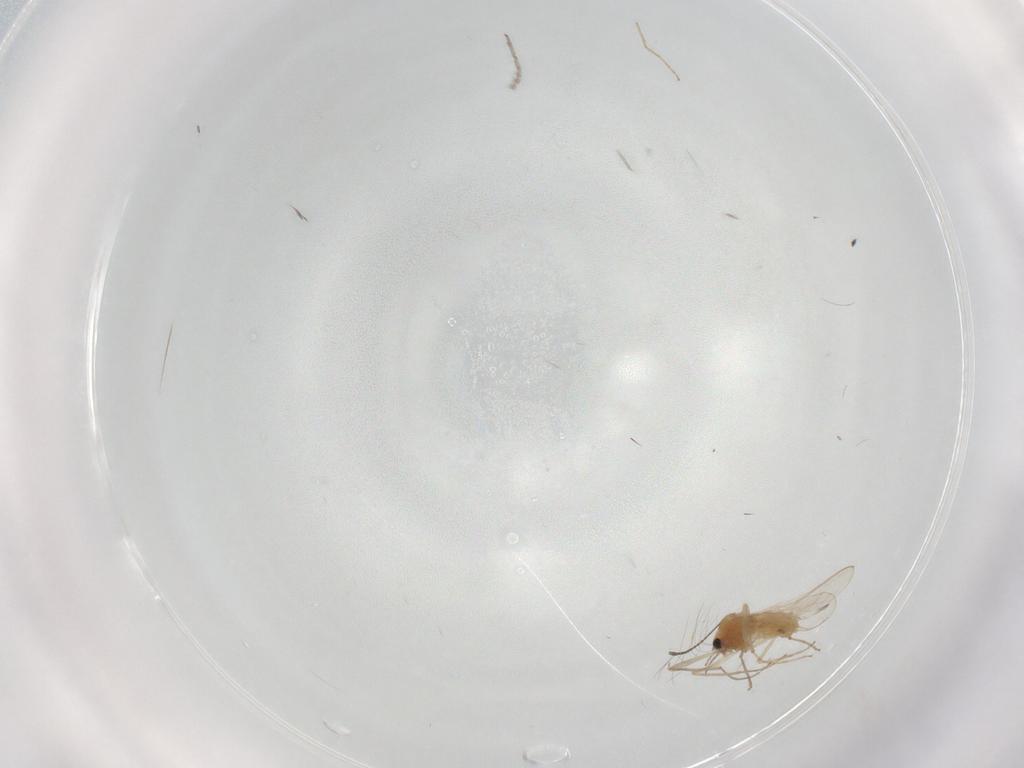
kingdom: Animalia
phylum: Arthropoda
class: Insecta
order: Diptera
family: Chironomidae
